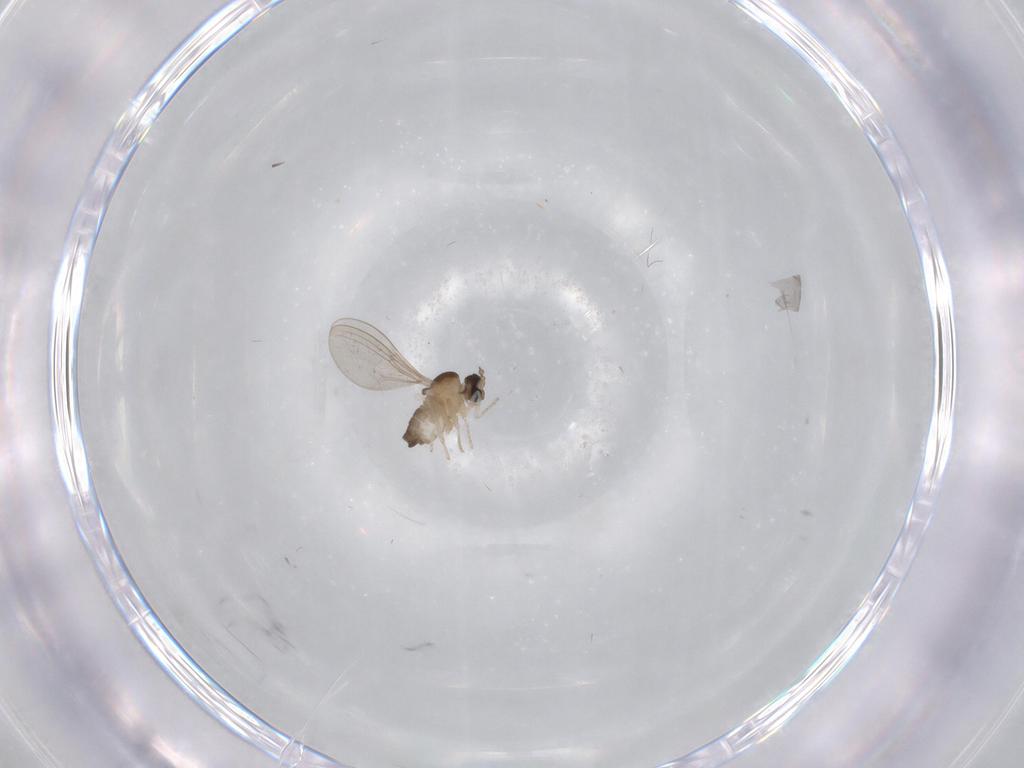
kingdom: Animalia
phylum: Arthropoda
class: Insecta
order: Diptera
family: Cecidomyiidae
